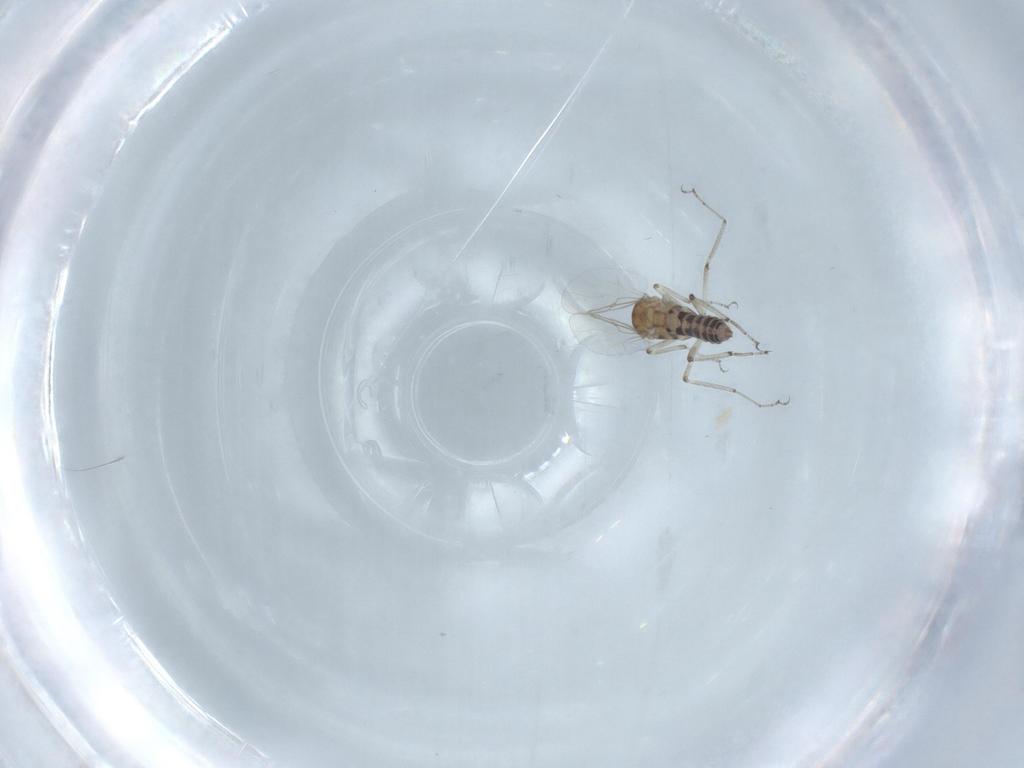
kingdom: Animalia
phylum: Arthropoda
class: Insecta
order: Diptera
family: Ceratopogonidae
